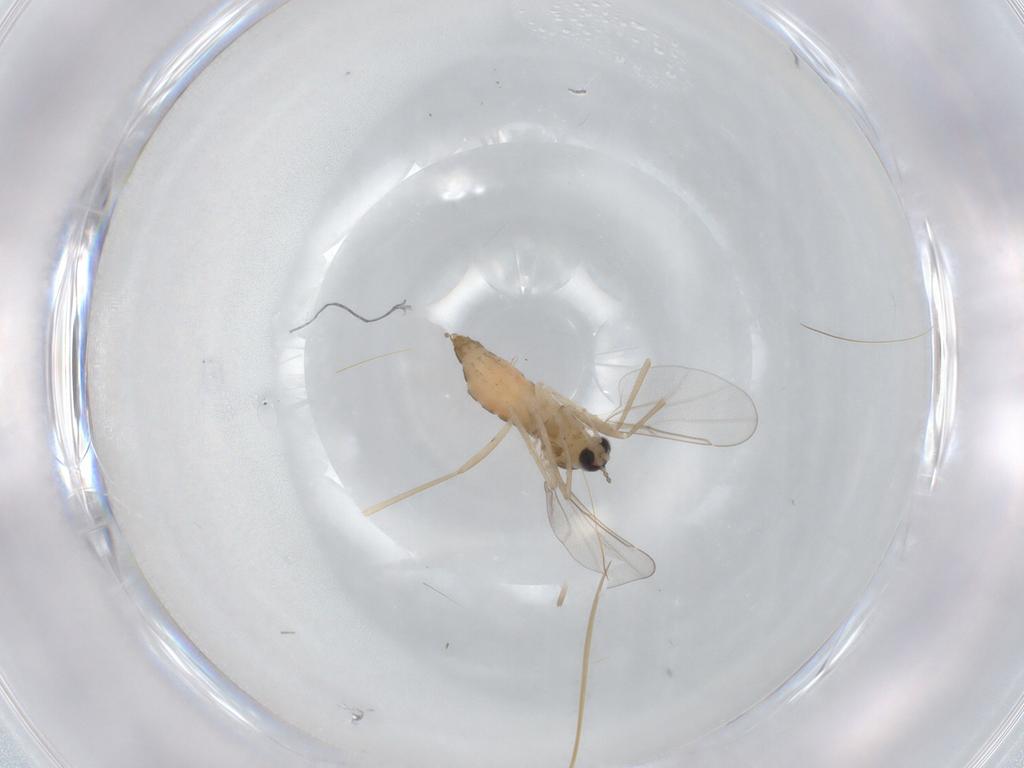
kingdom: Animalia
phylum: Arthropoda
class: Insecta
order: Diptera
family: Cecidomyiidae
